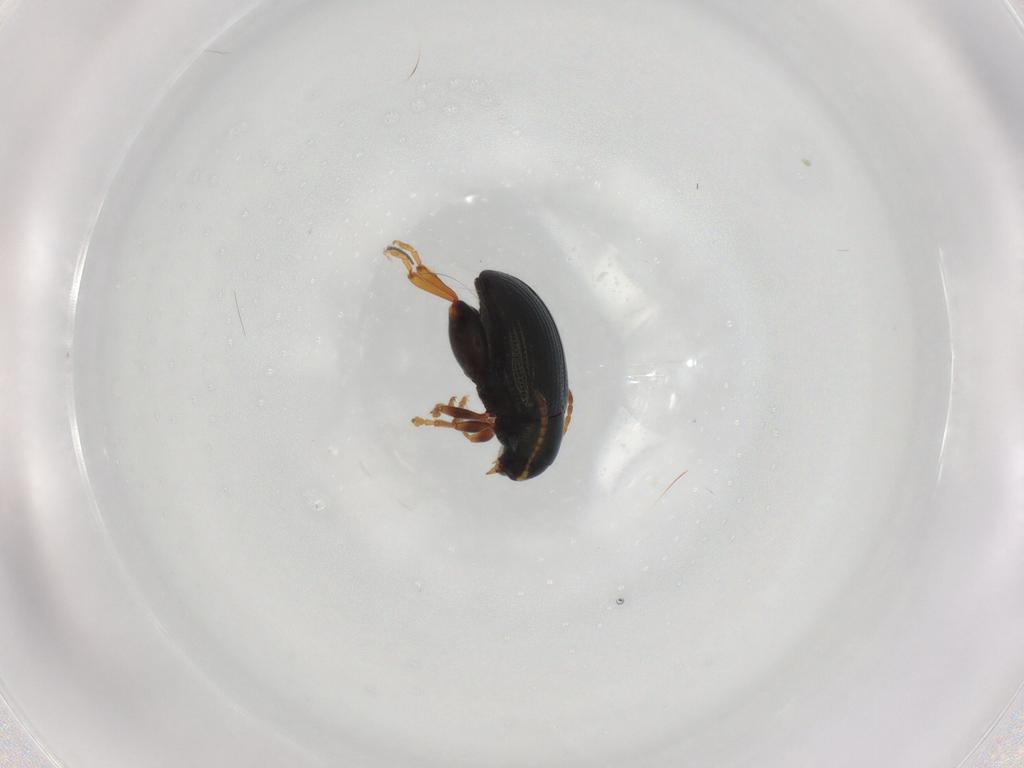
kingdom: Animalia
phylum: Arthropoda
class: Insecta
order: Coleoptera
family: Chrysomelidae
